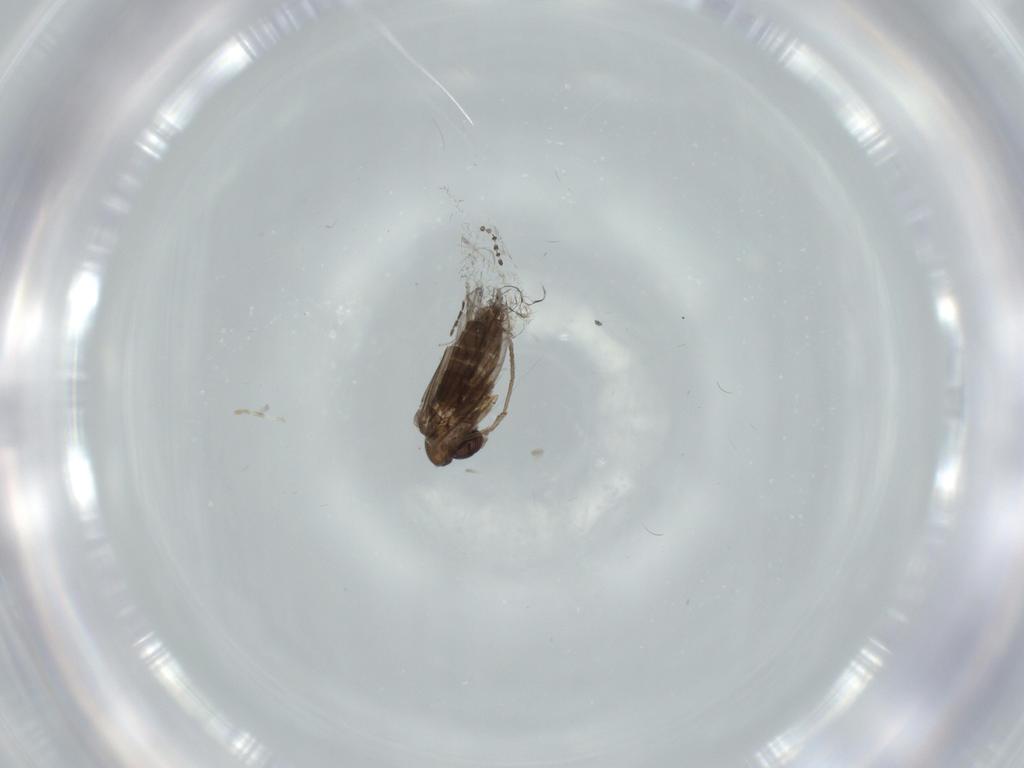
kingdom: Animalia
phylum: Arthropoda
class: Insecta
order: Diptera
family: Cecidomyiidae
